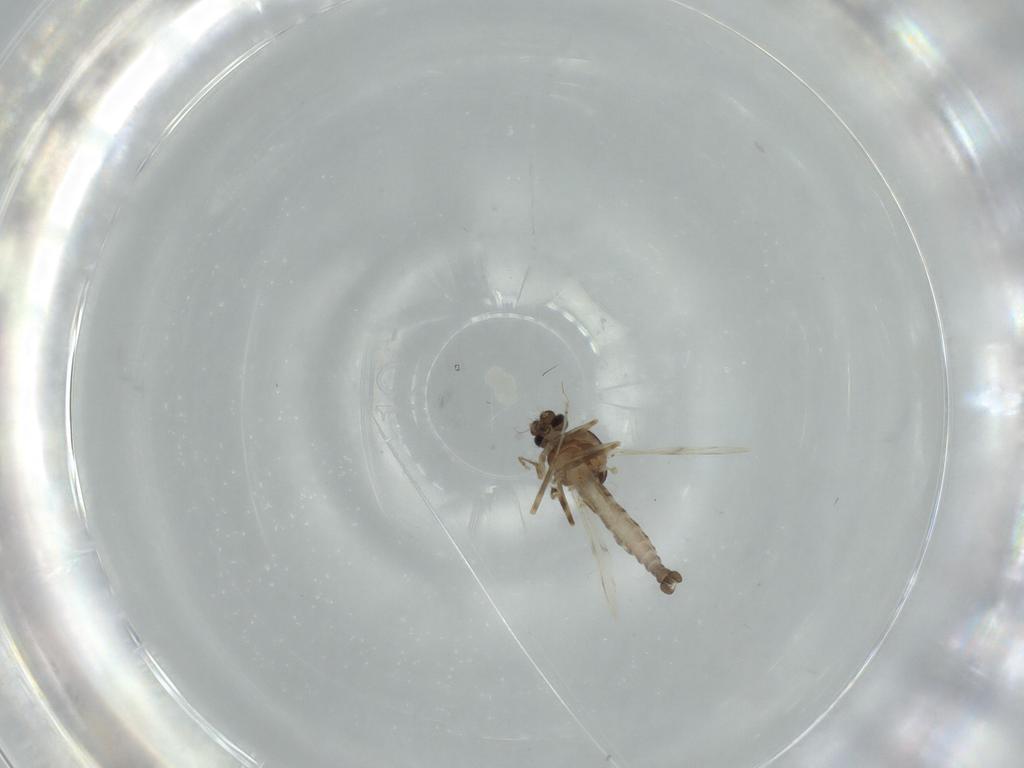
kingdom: Animalia
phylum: Arthropoda
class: Insecta
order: Diptera
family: Ceratopogonidae
